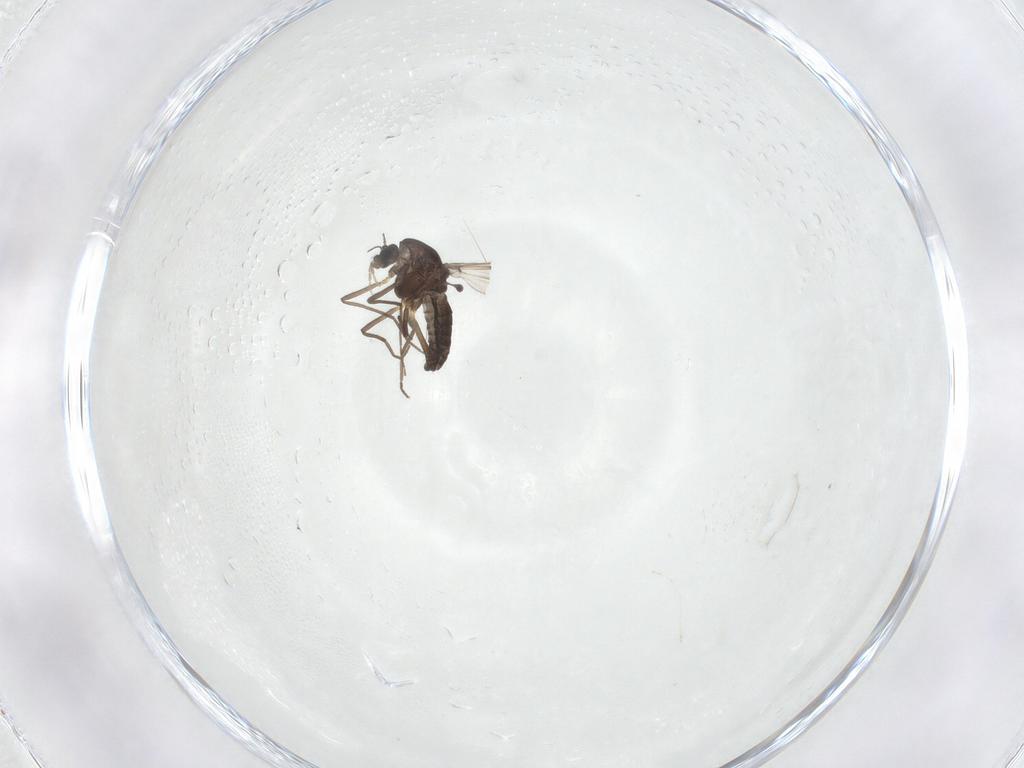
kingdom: Animalia
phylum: Arthropoda
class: Insecta
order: Diptera
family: Chironomidae
